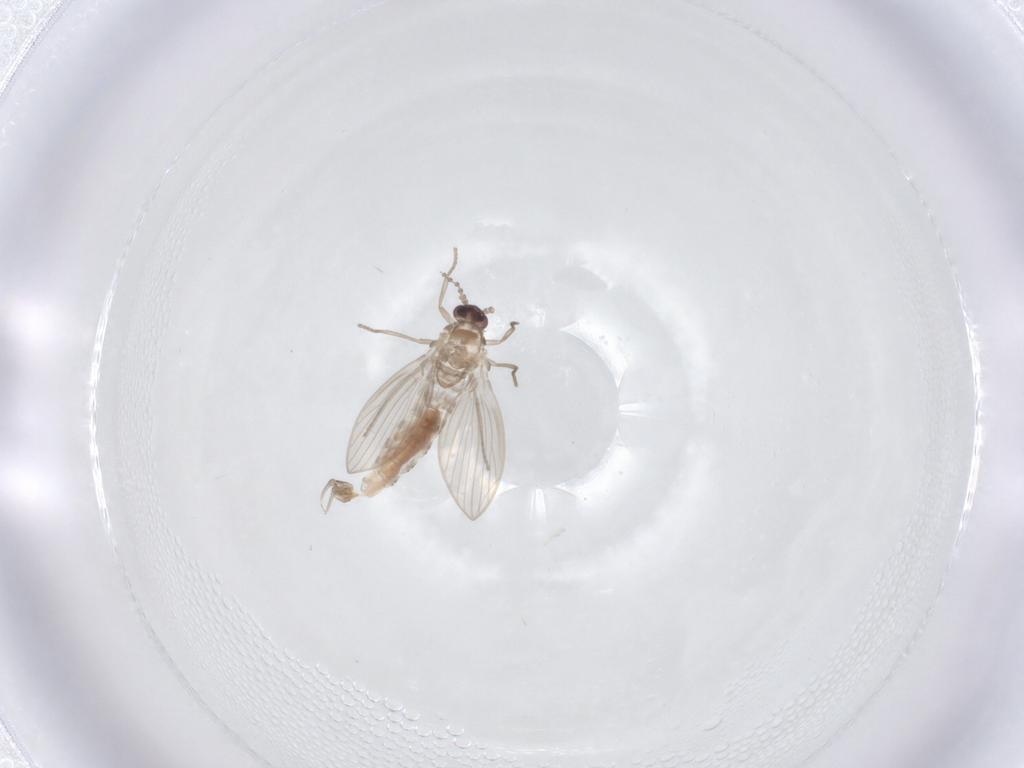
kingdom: Animalia
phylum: Arthropoda
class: Insecta
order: Diptera
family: Psychodidae
